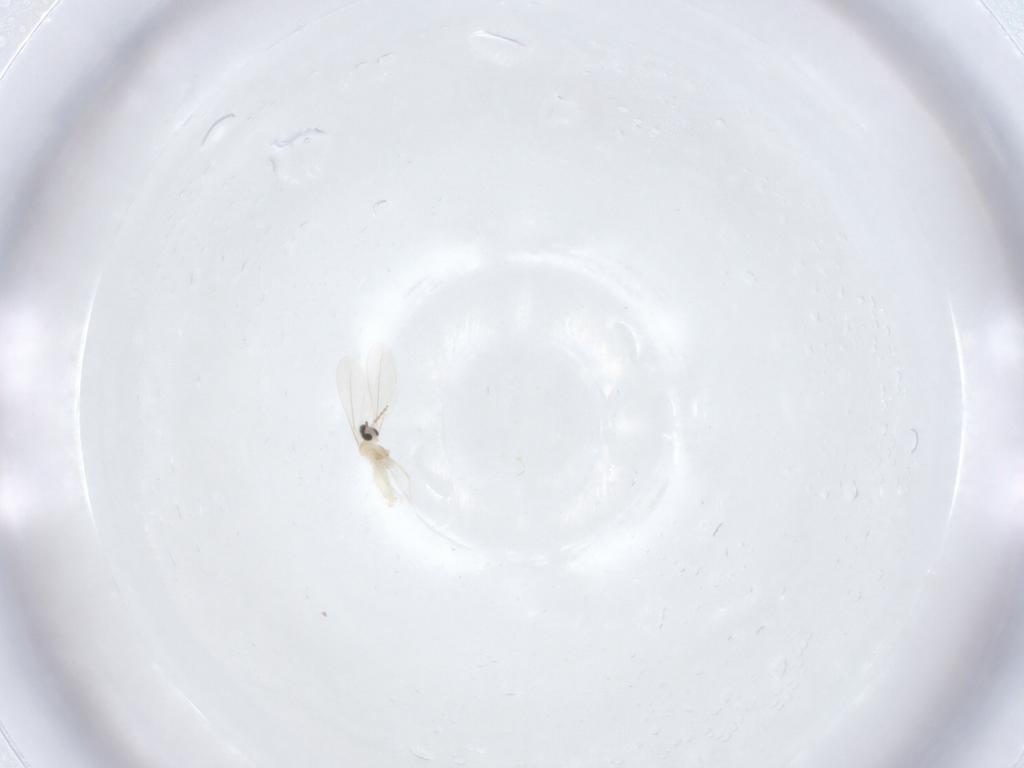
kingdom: Animalia
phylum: Arthropoda
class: Insecta
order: Diptera
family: Cecidomyiidae
